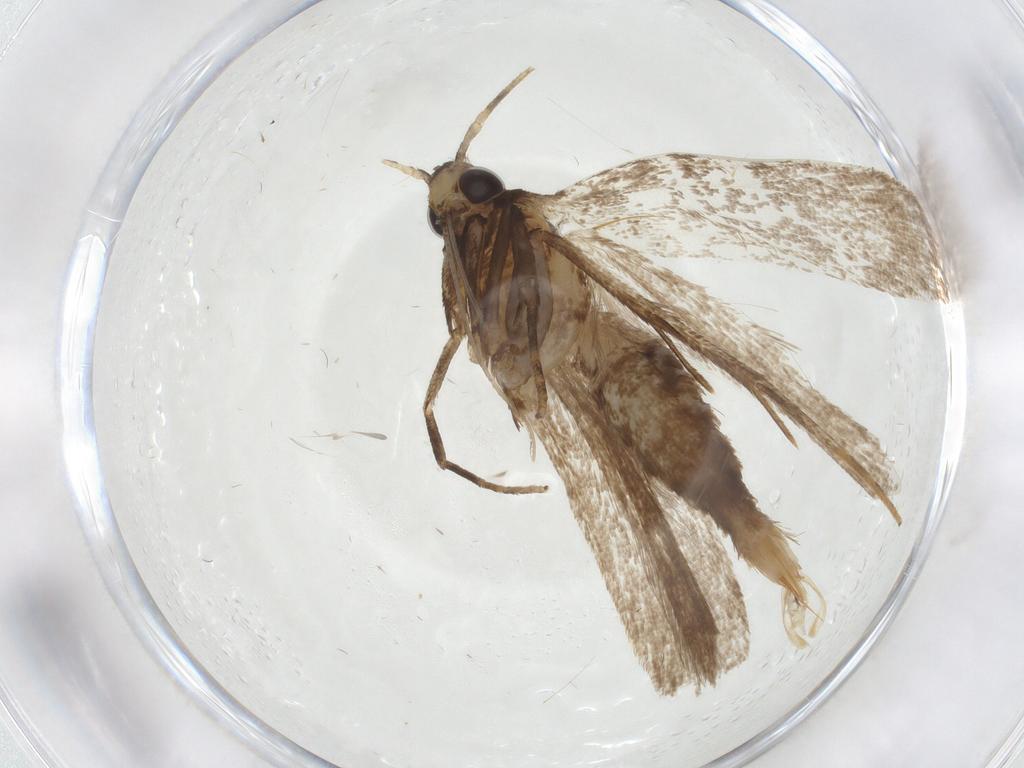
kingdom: Animalia
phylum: Arthropoda
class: Insecta
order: Lepidoptera
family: Gelechiidae
